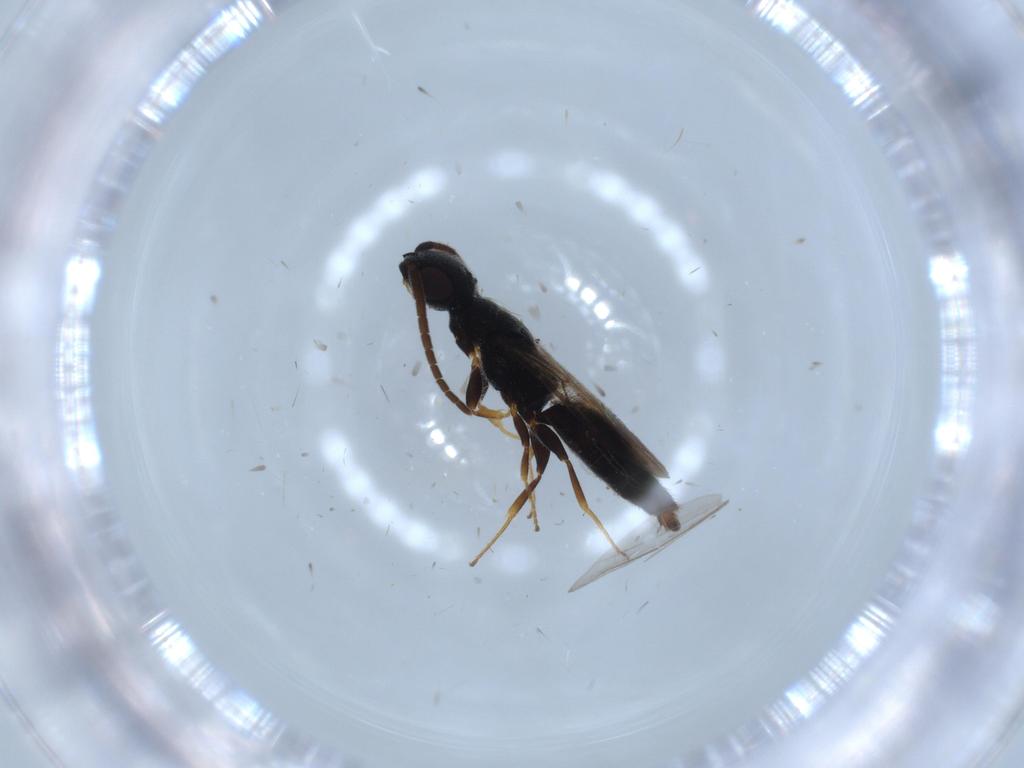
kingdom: Animalia
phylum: Arthropoda
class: Insecta
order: Hymenoptera
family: Bethylidae
